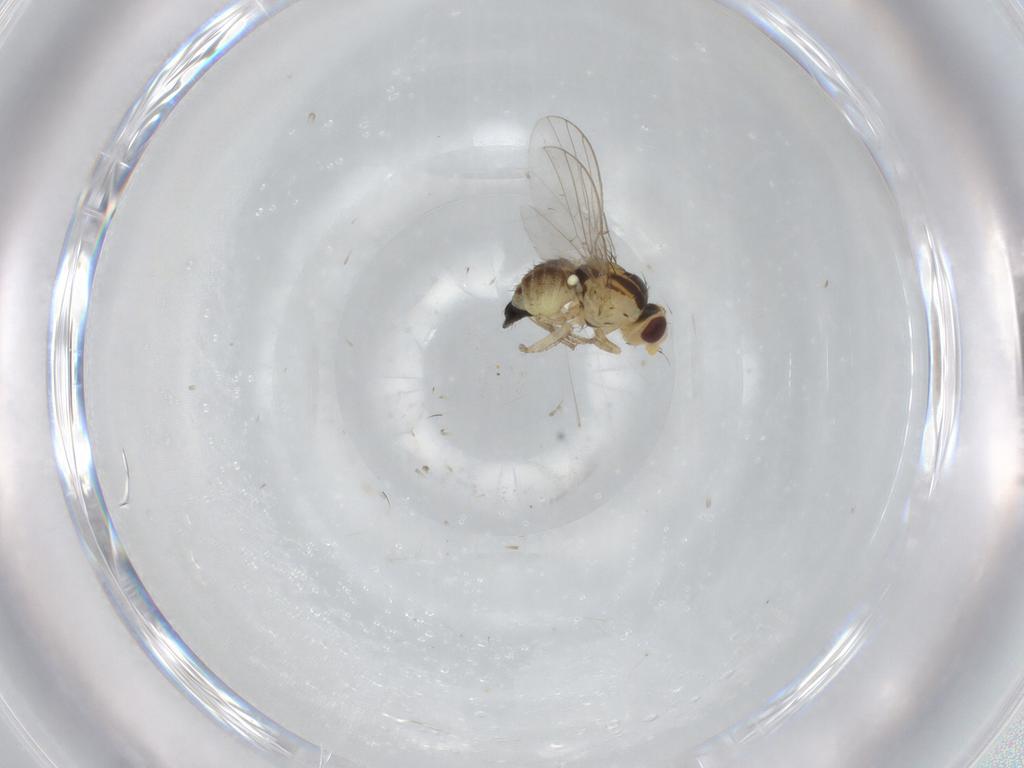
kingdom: Animalia
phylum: Arthropoda
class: Insecta
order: Diptera
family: Agromyzidae
